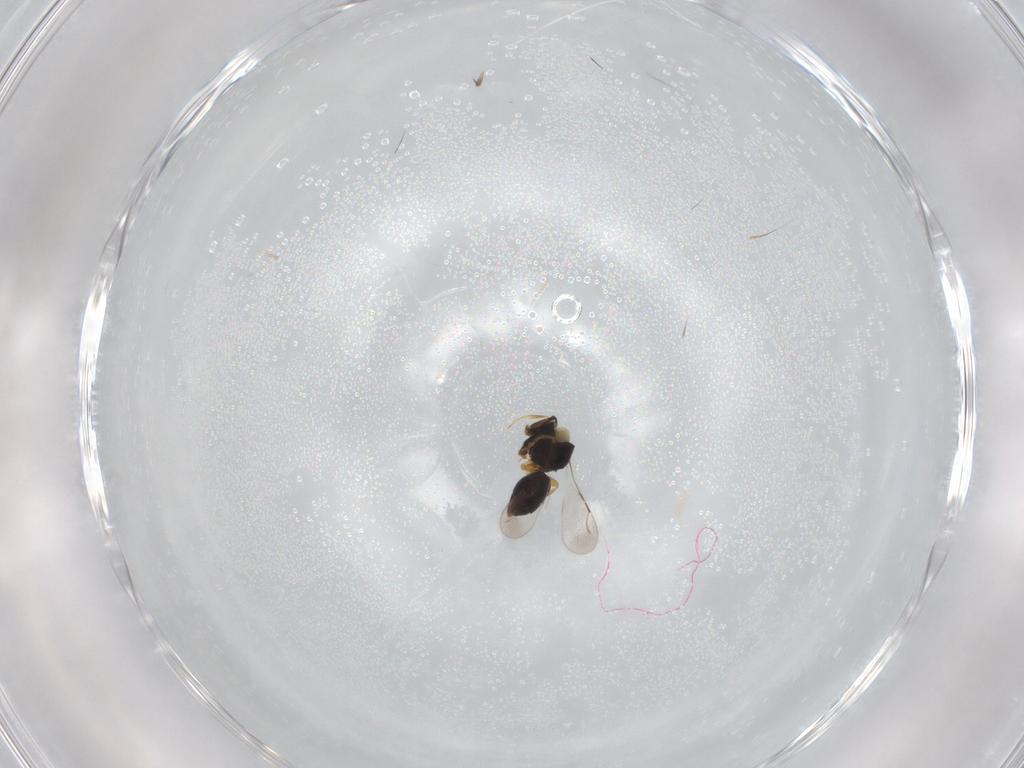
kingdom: Animalia
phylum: Arthropoda
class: Insecta
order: Hymenoptera
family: Ceraphronidae
